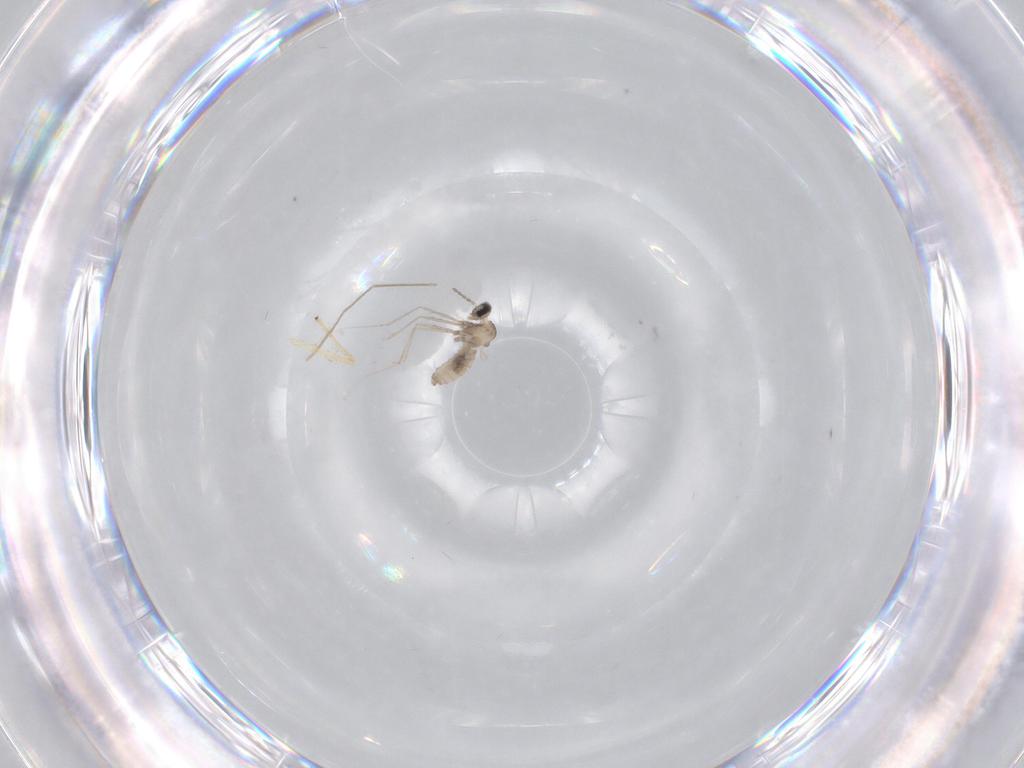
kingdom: Animalia
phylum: Arthropoda
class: Insecta
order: Diptera
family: Cecidomyiidae
